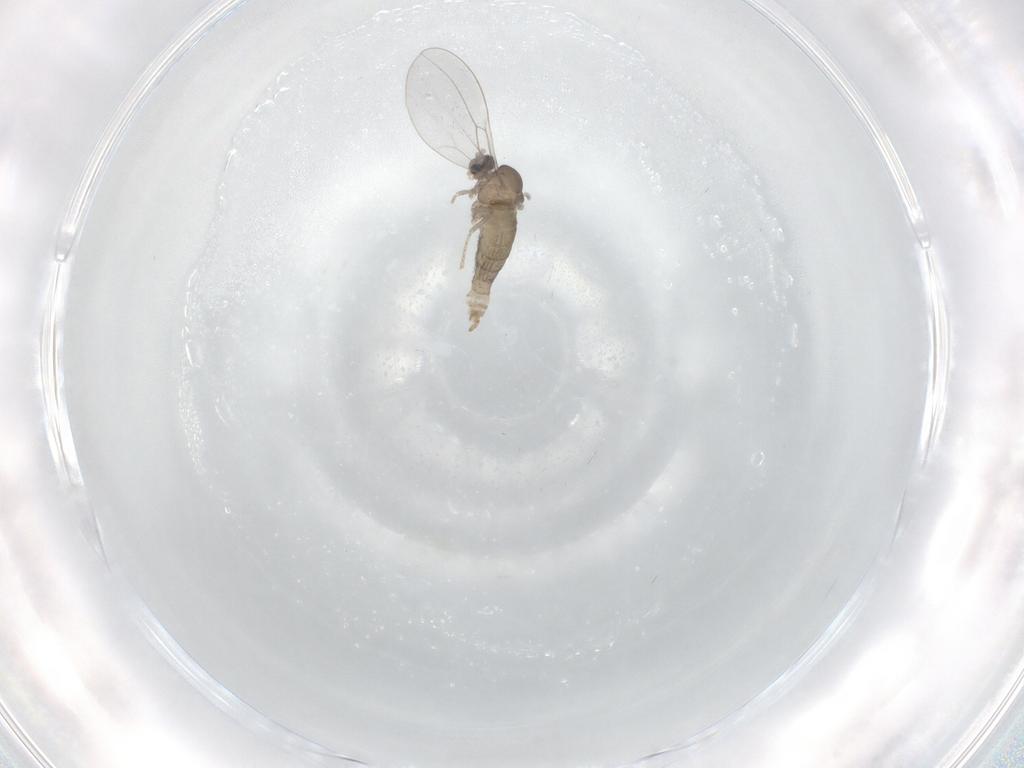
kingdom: Animalia
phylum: Arthropoda
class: Insecta
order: Diptera
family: Cecidomyiidae
